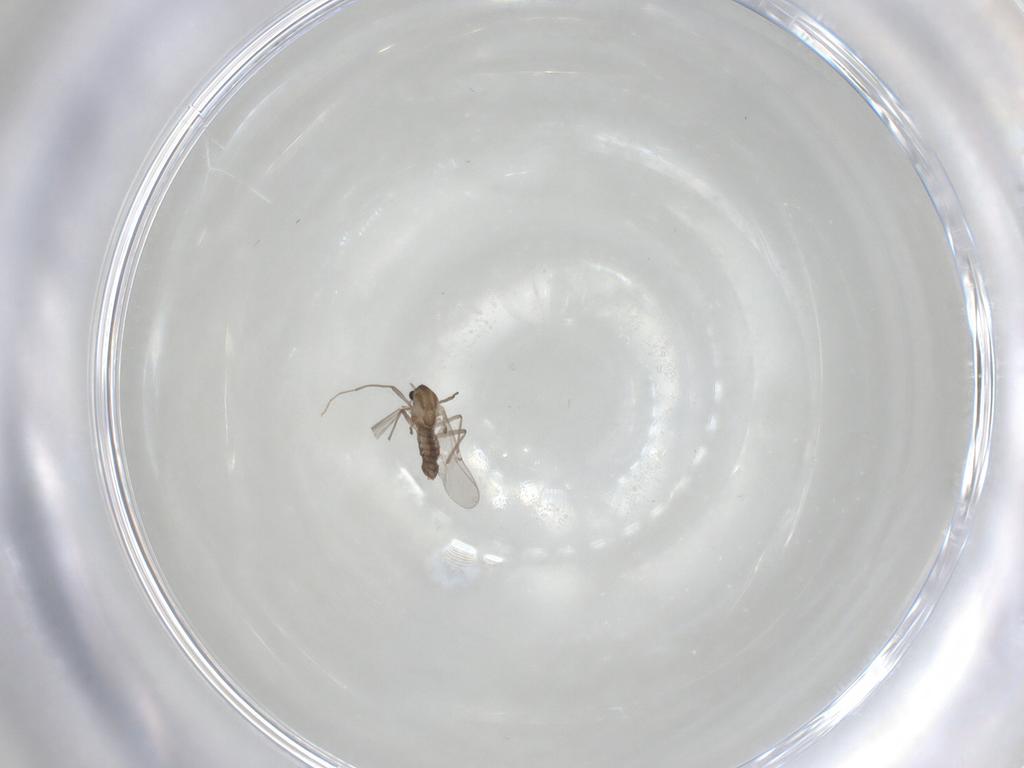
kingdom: Animalia
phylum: Arthropoda
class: Insecta
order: Diptera
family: Chironomidae
